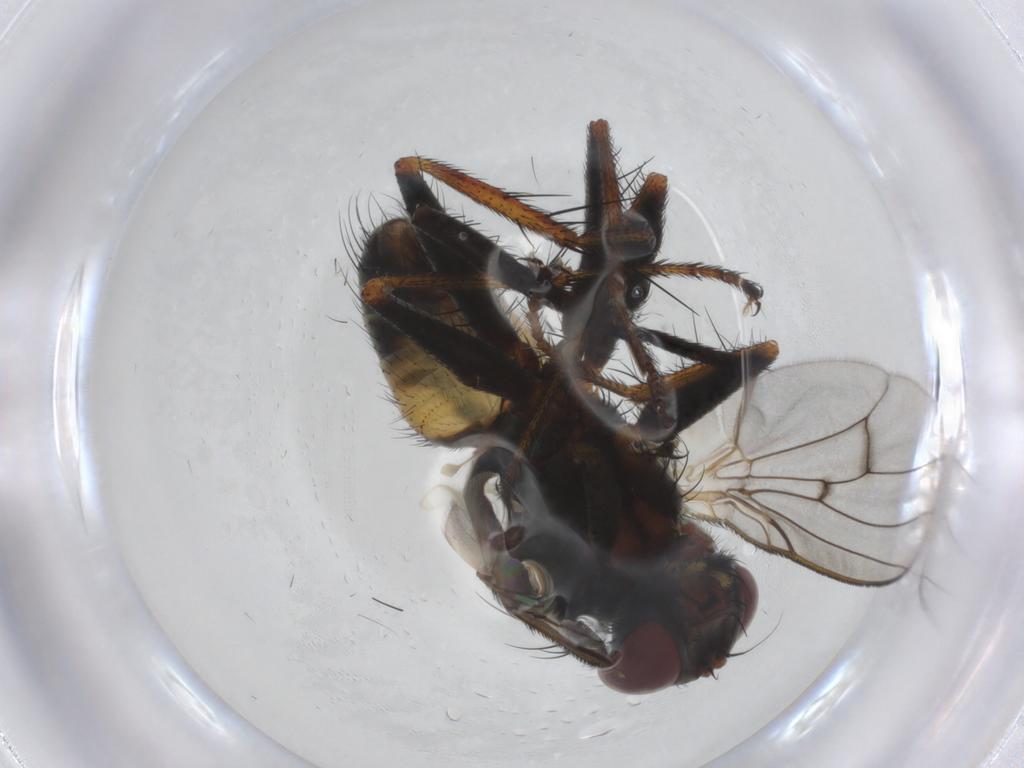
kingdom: Animalia
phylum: Arthropoda
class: Insecta
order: Diptera
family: Muscidae
